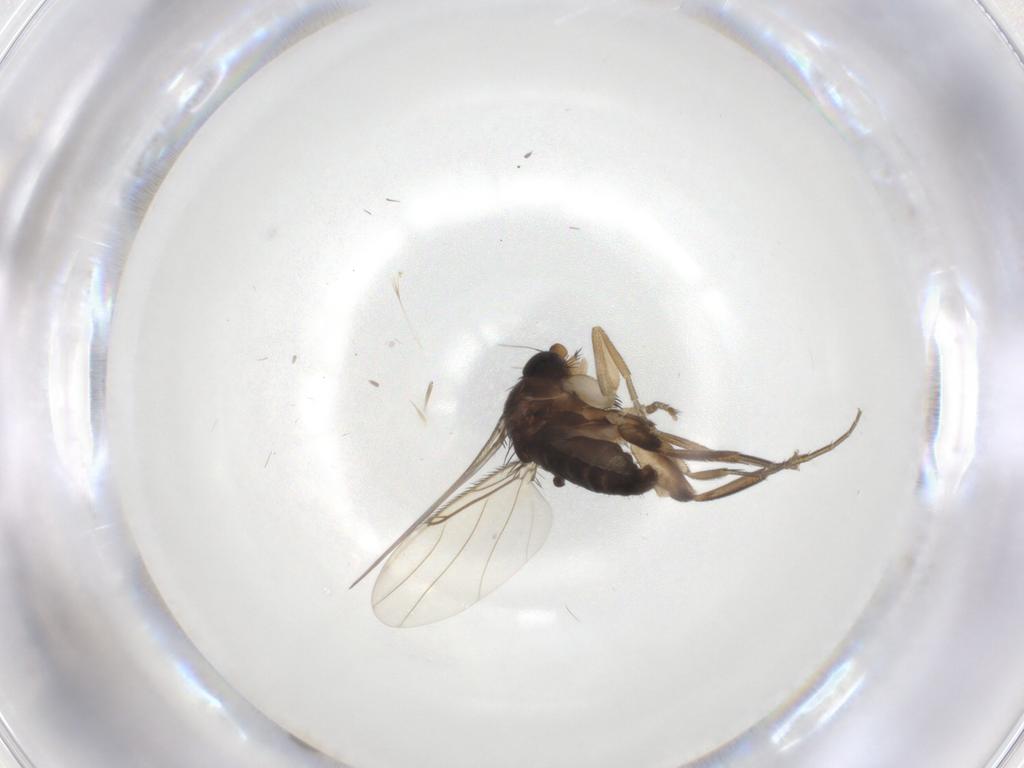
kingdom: Animalia
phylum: Arthropoda
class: Insecta
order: Diptera
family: Phoridae
